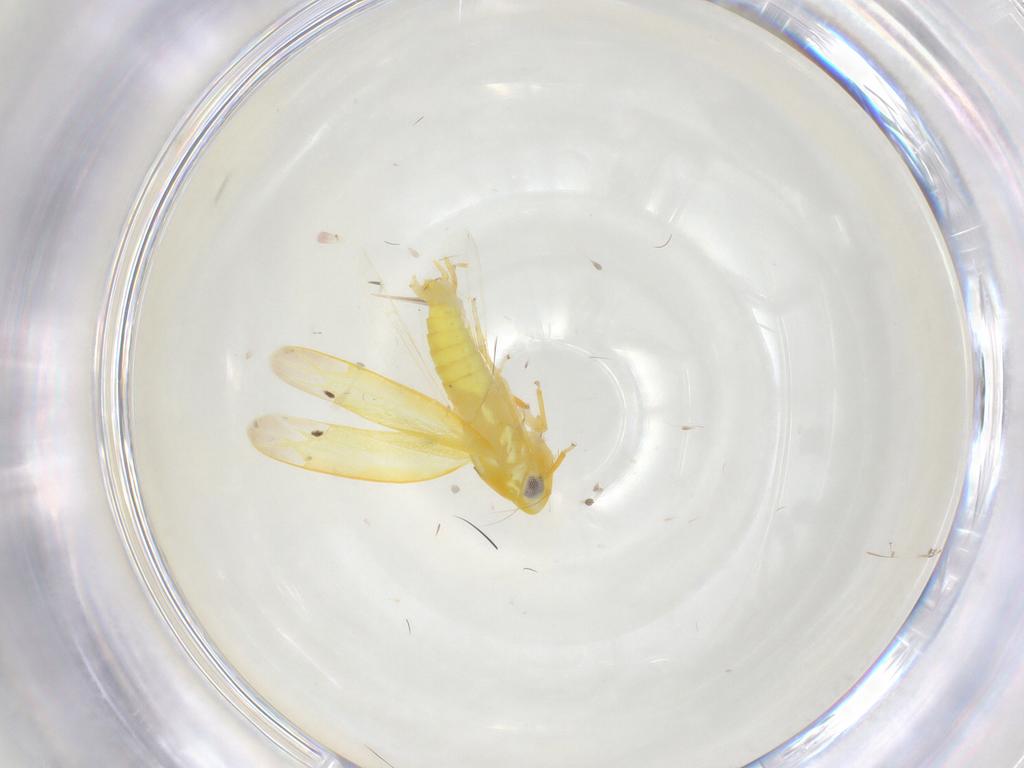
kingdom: Animalia
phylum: Arthropoda
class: Insecta
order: Hemiptera
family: Cicadellidae
